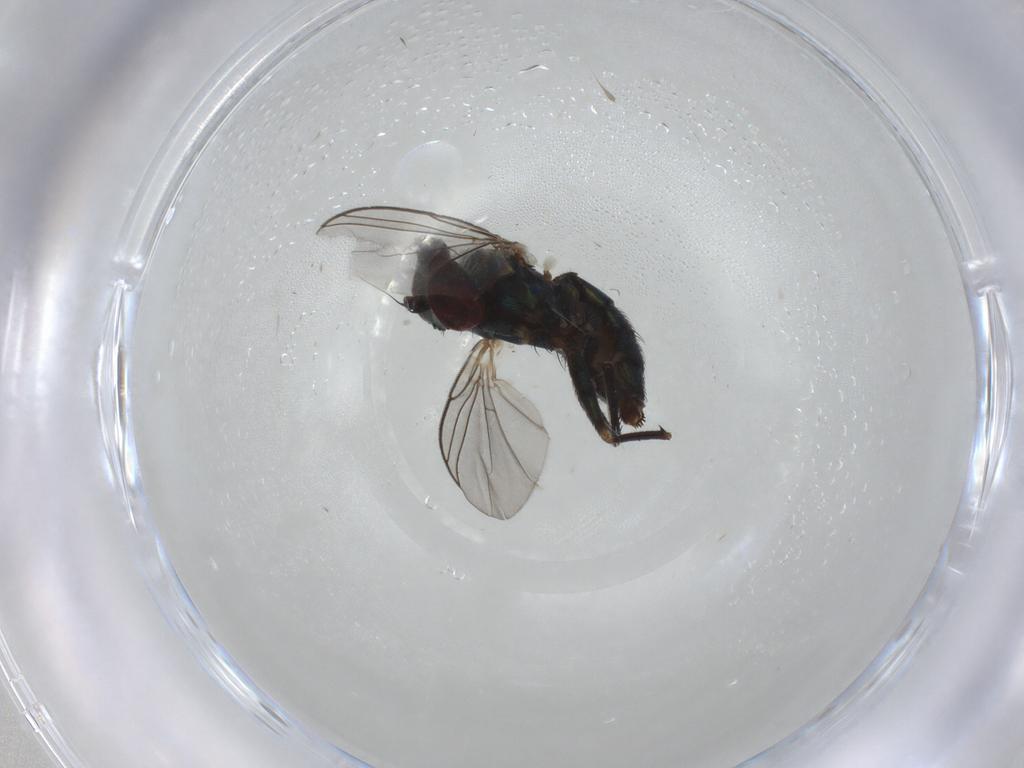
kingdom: Animalia
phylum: Arthropoda
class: Insecta
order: Diptera
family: Dolichopodidae
